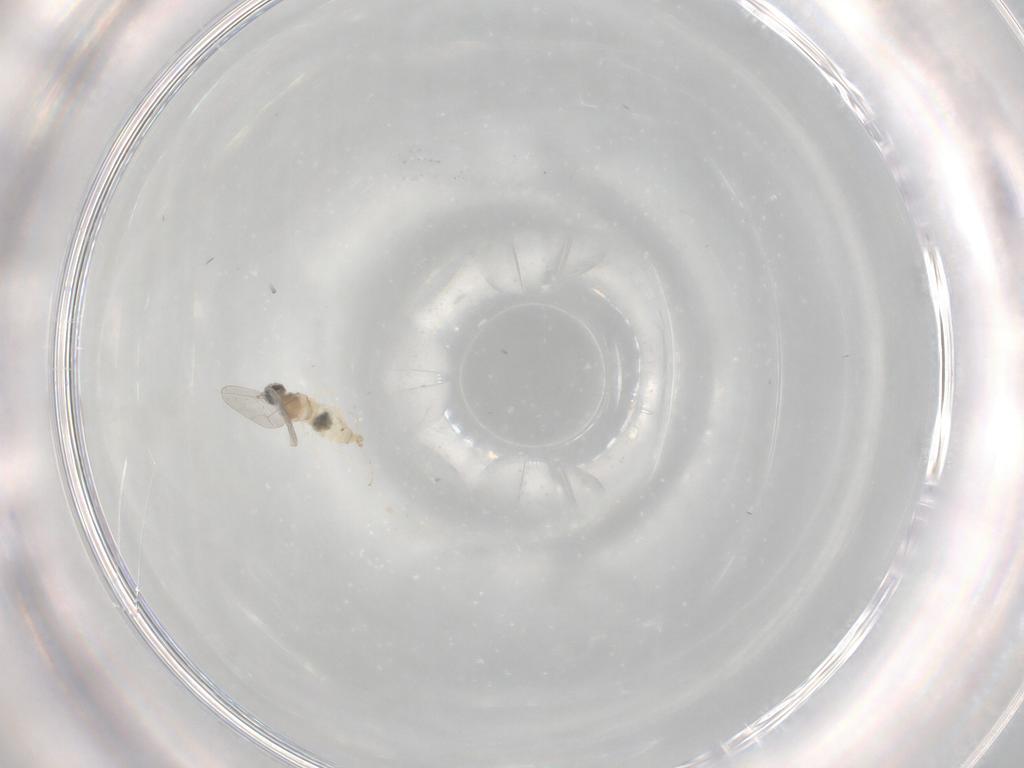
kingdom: Animalia
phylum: Arthropoda
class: Insecta
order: Diptera
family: Cecidomyiidae
